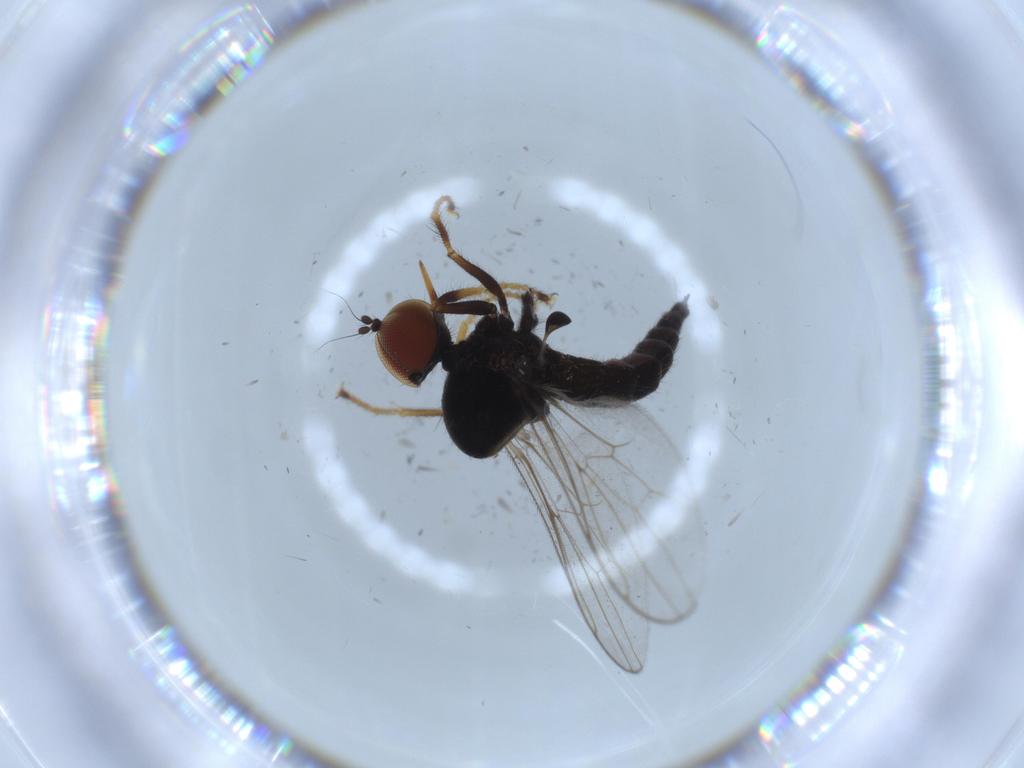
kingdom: Animalia
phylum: Arthropoda
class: Insecta
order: Diptera
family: Hybotidae
